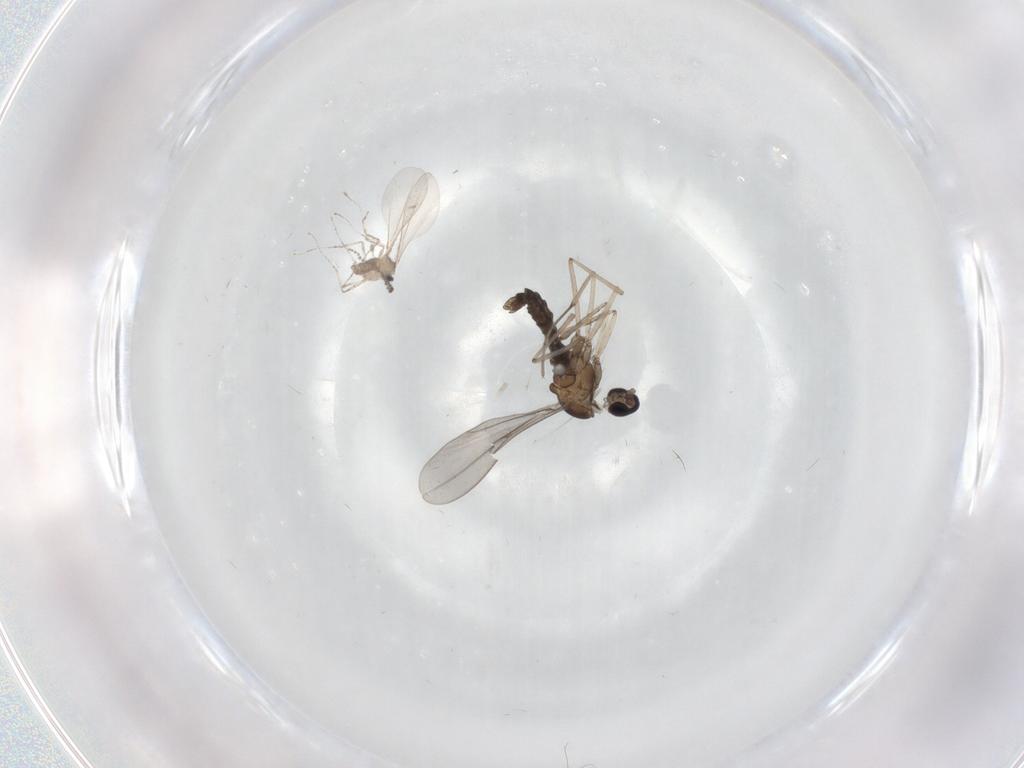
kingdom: Animalia
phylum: Arthropoda
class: Insecta
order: Diptera
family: Cecidomyiidae
